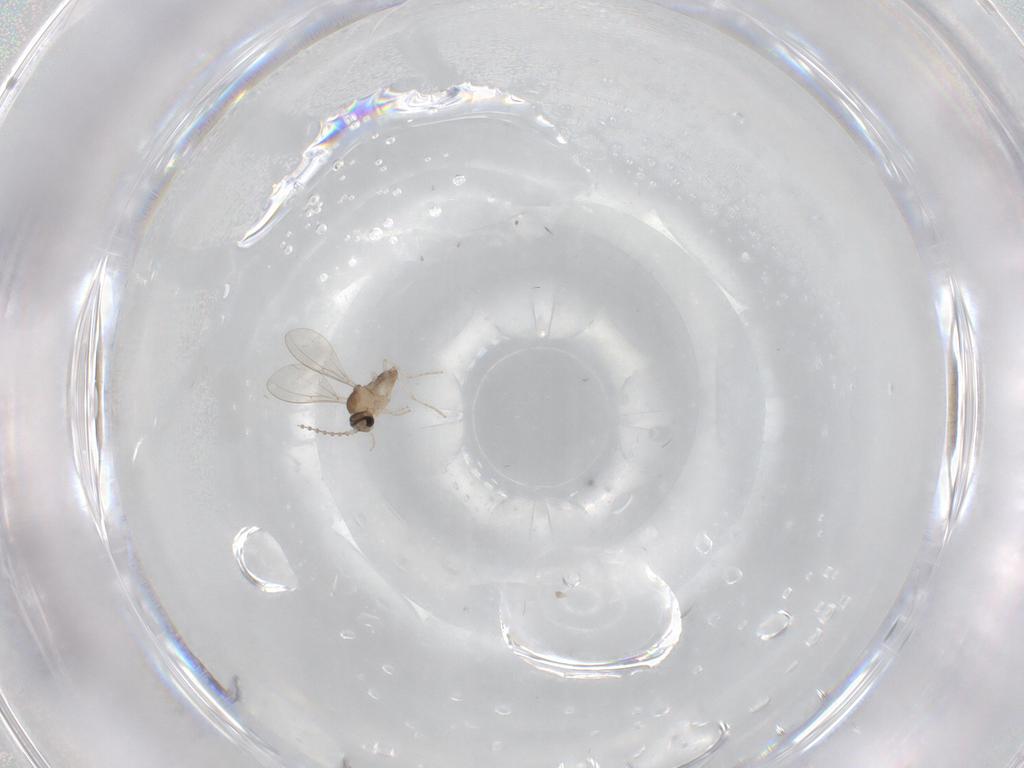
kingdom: Animalia
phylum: Arthropoda
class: Insecta
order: Diptera
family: Cecidomyiidae
